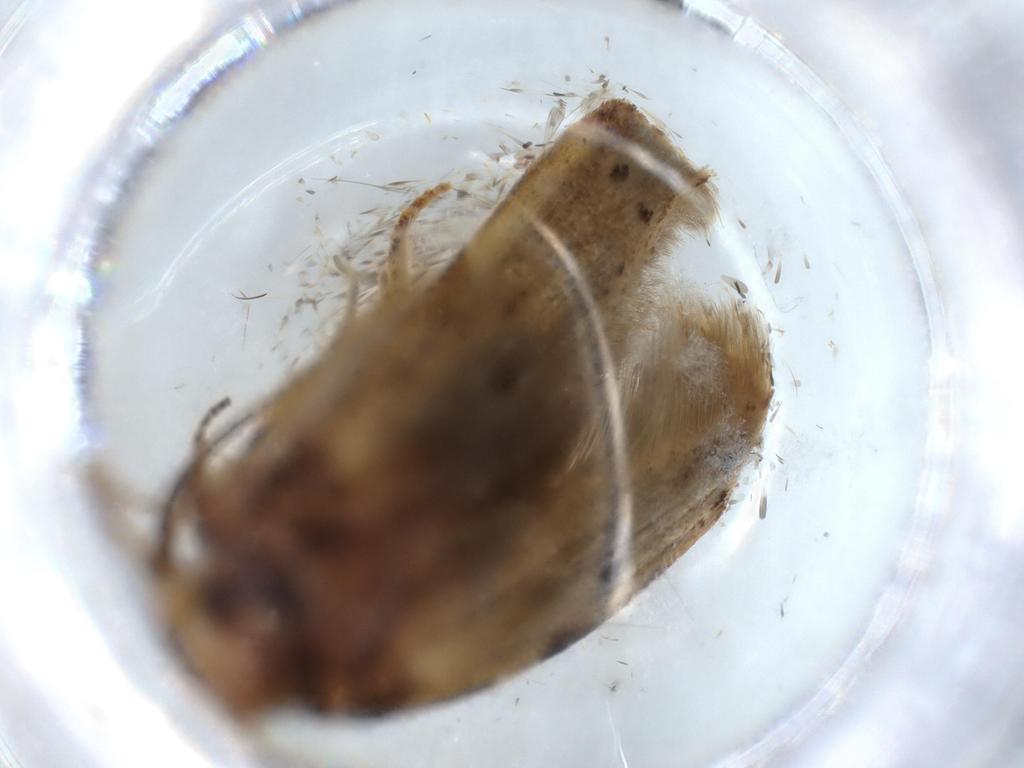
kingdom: Animalia
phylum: Arthropoda
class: Insecta
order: Lepidoptera
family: Blastobasidae
